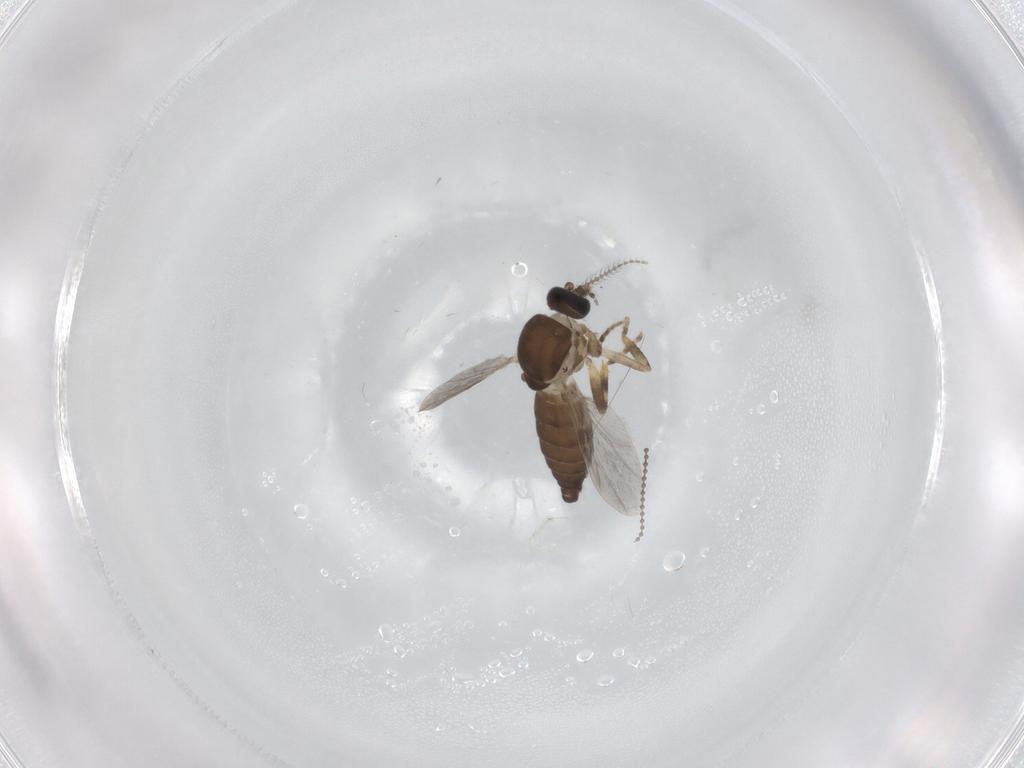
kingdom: Animalia
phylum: Arthropoda
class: Insecta
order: Diptera
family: Ceratopogonidae
